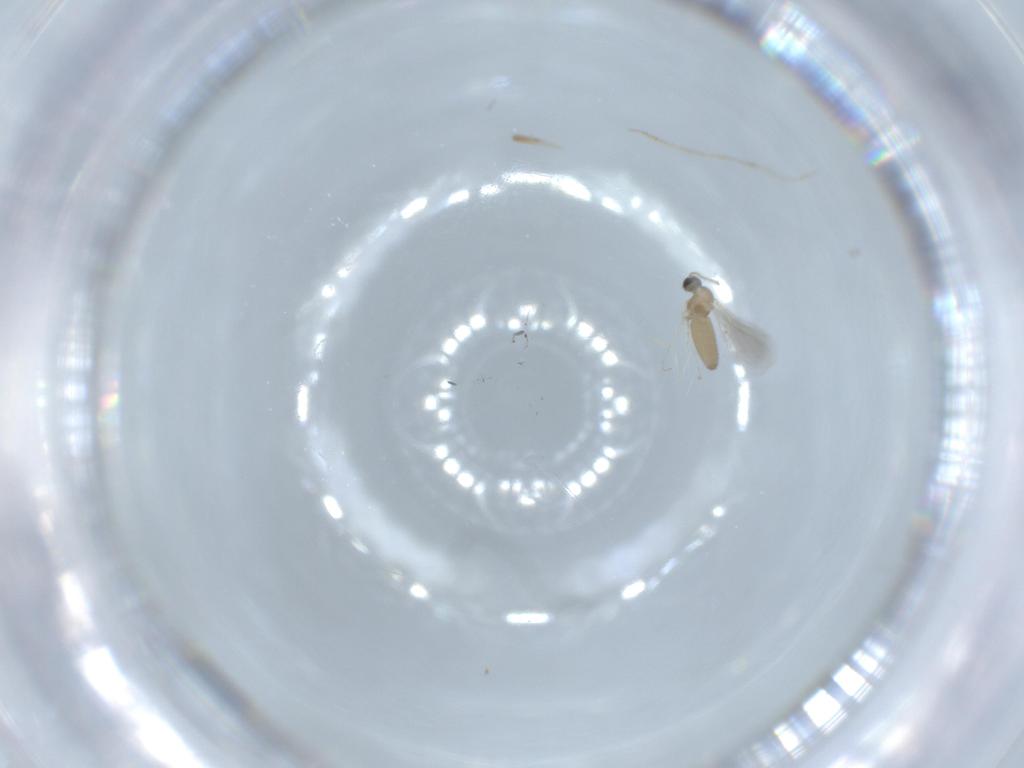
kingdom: Animalia
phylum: Arthropoda
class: Insecta
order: Diptera
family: Cecidomyiidae
